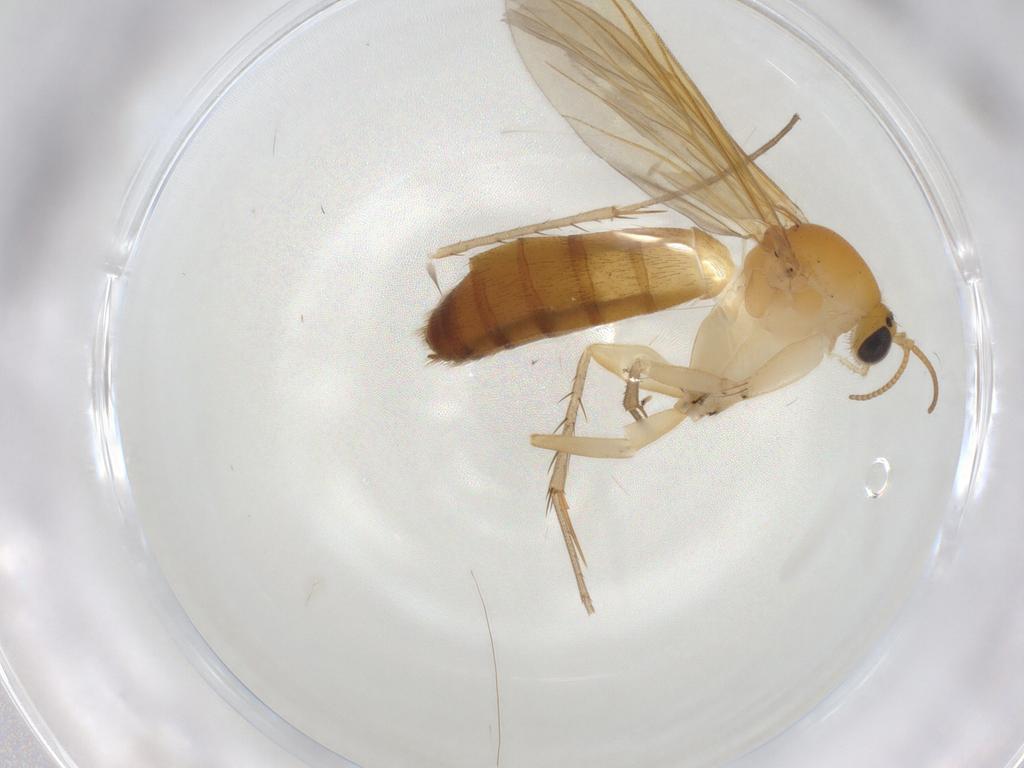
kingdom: Animalia
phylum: Arthropoda
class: Insecta
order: Diptera
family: Mycetophilidae
